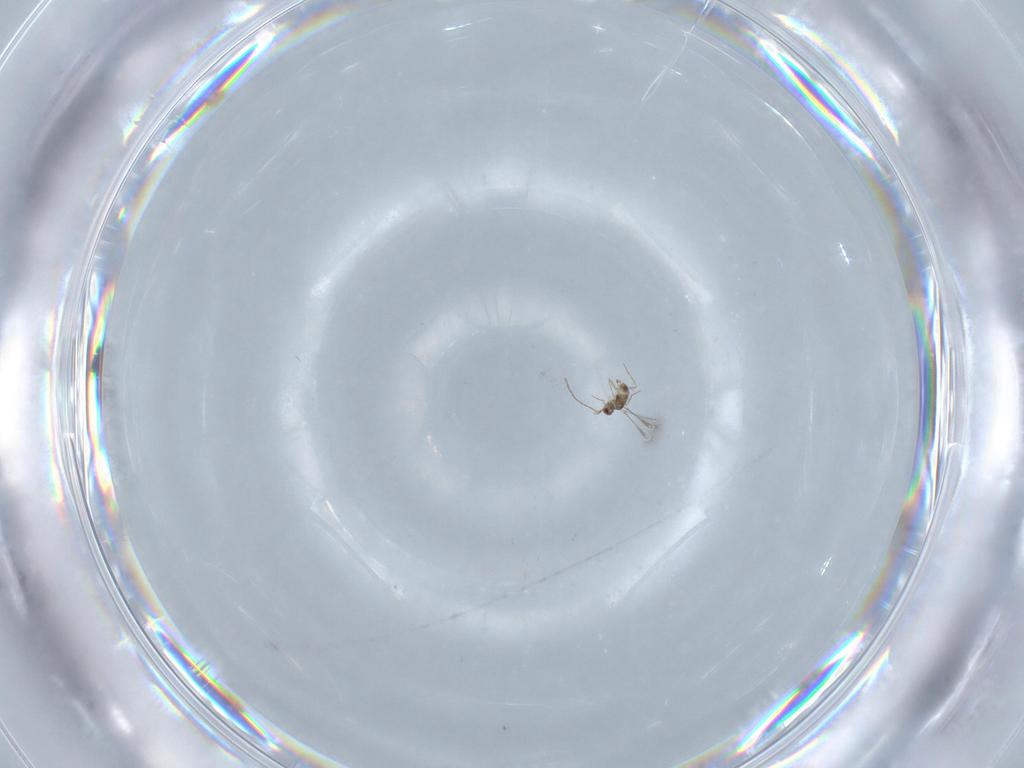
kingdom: Animalia
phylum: Arthropoda
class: Insecta
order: Hymenoptera
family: Mymaridae
